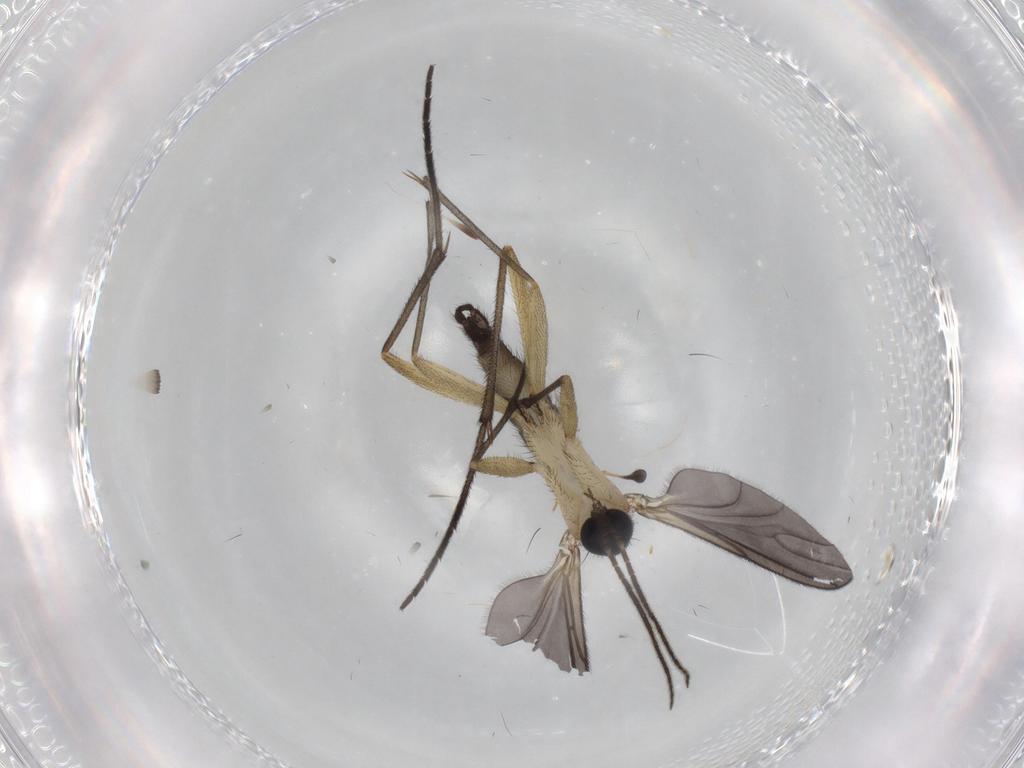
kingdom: Animalia
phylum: Arthropoda
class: Insecta
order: Diptera
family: Sciaridae
